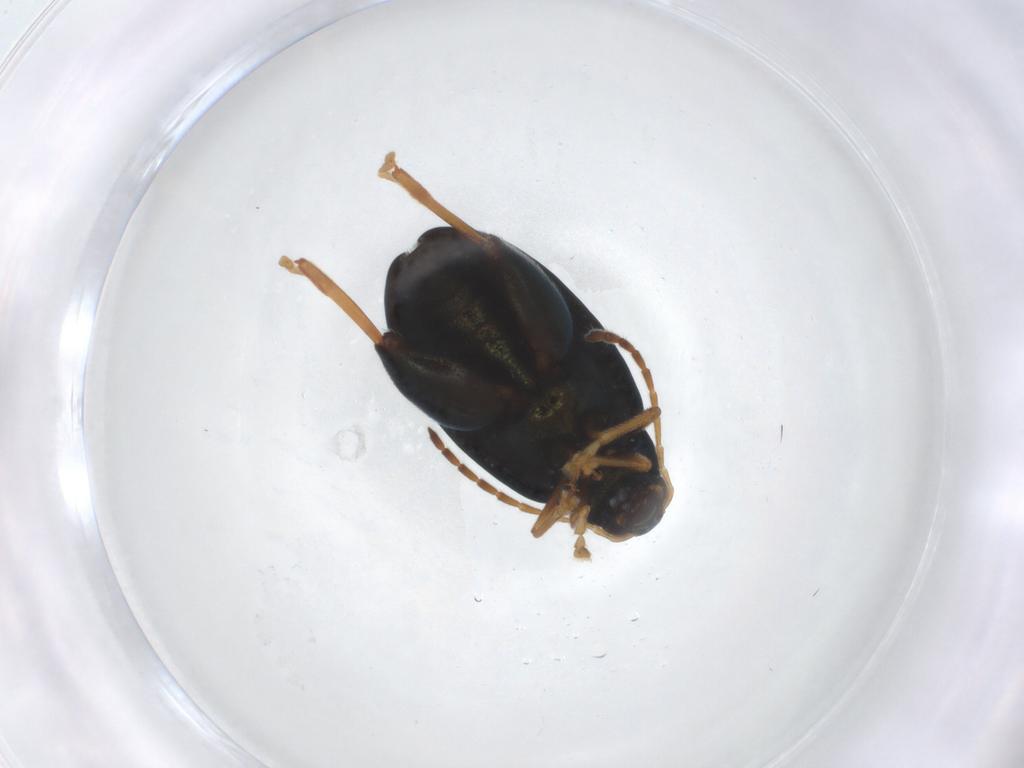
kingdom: Animalia
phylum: Arthropoda
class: Insecta
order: Coleoptera
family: Chrysomelidae
